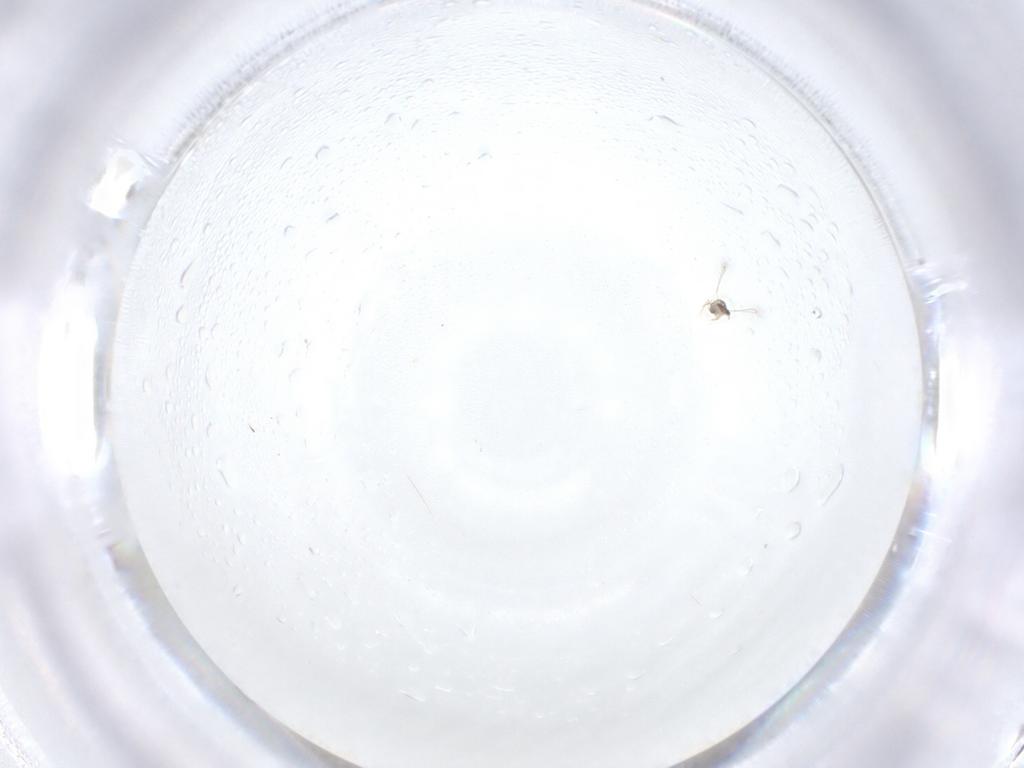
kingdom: Animalia
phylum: Arthropoda
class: Insecta
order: Hymenoptera
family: Mymaridae
